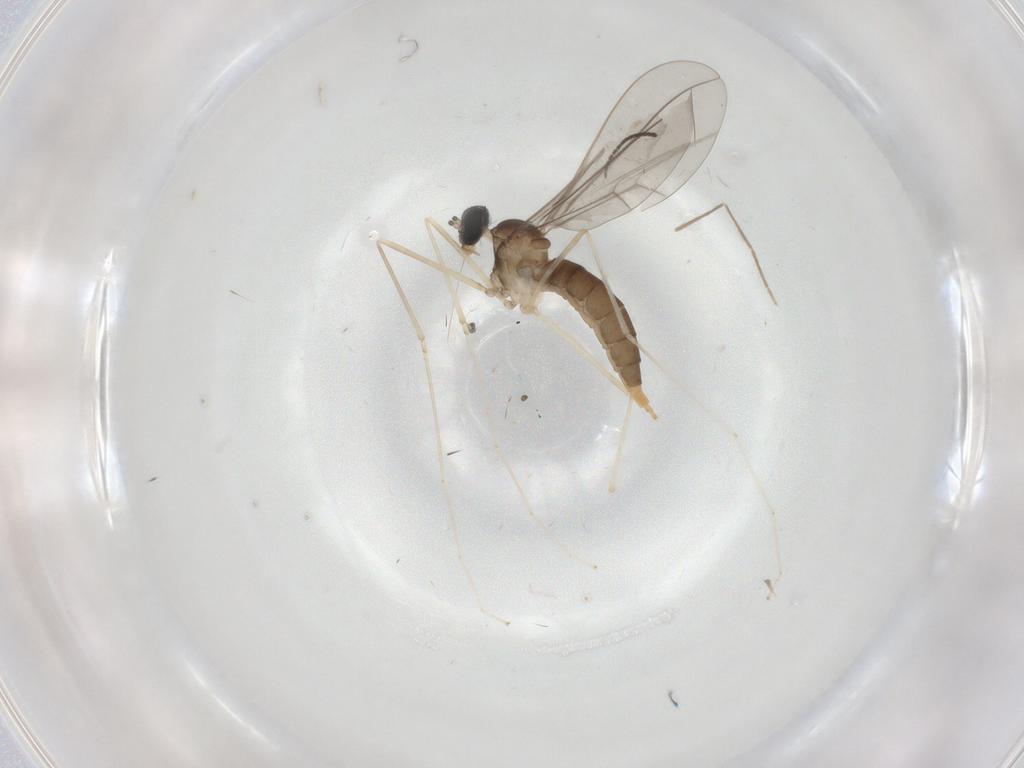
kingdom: Animalia
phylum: Arthropoda
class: Insecta
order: Diptera
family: Cecidomyiidae
